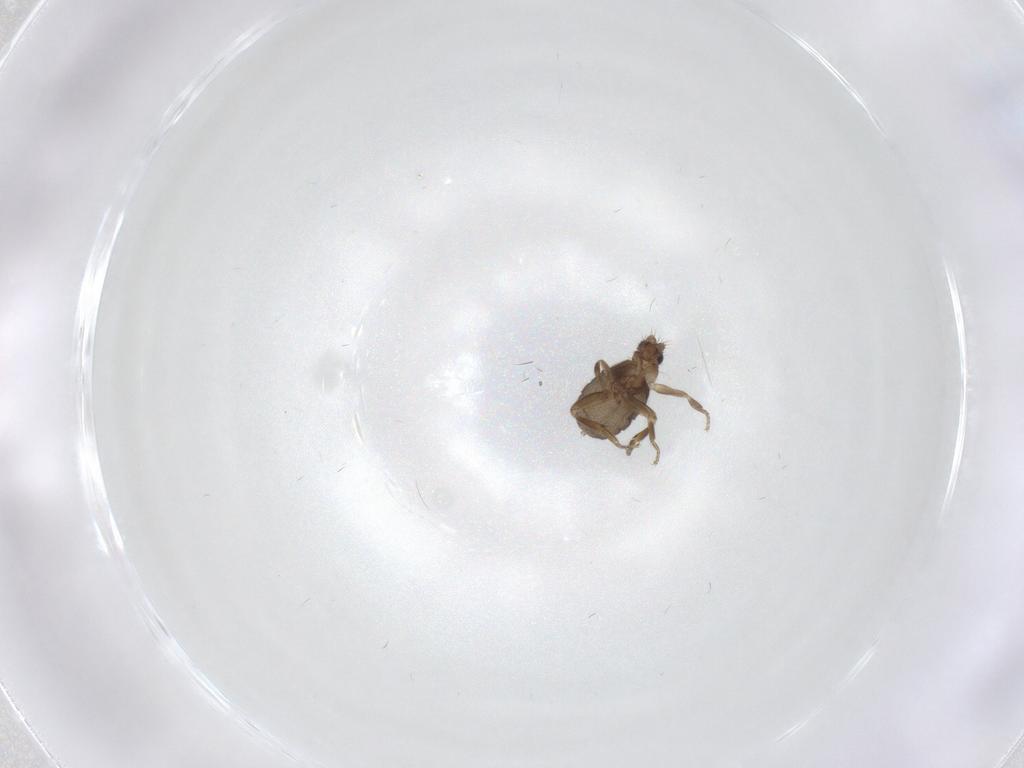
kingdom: Animalia
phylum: Arthropoda
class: Insecta
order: Diptera
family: Phoridae
